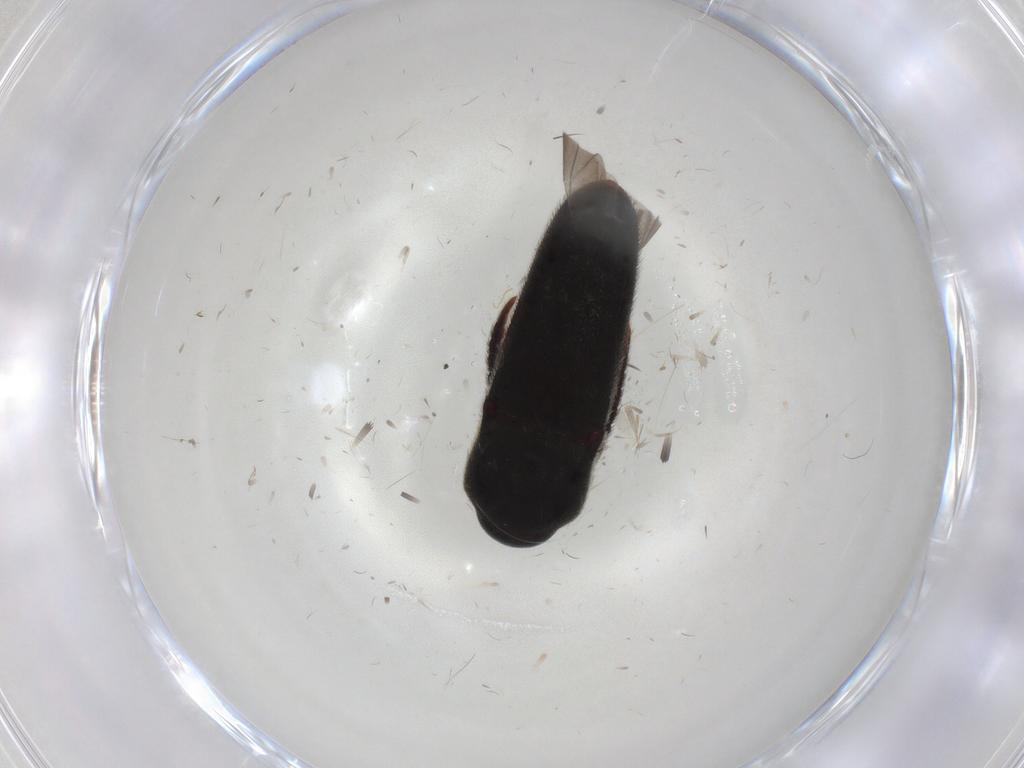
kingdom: Animalia
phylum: Arthropoda
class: Insecta
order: Coleoptera
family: Eucnemidae
